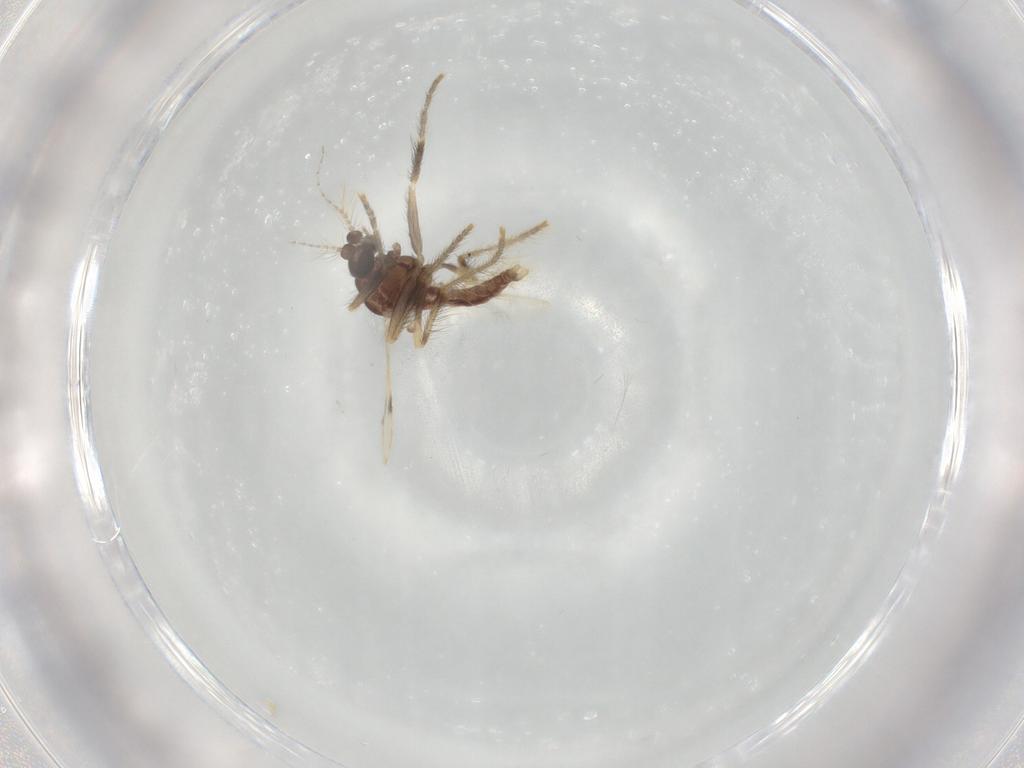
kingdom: Animalia
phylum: Arthropoda
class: Insecta
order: Diptera
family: Corethrellidae
